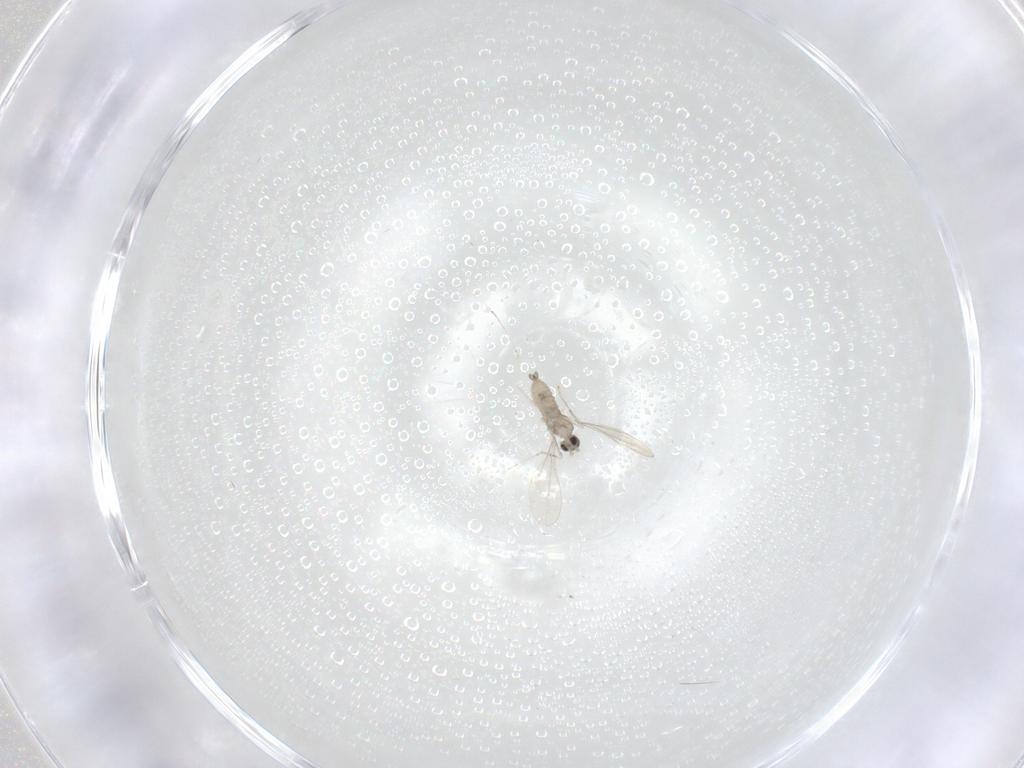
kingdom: Animalia
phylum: Arthropoda
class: Insecta
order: Diptera
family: Cecidomyiidae
